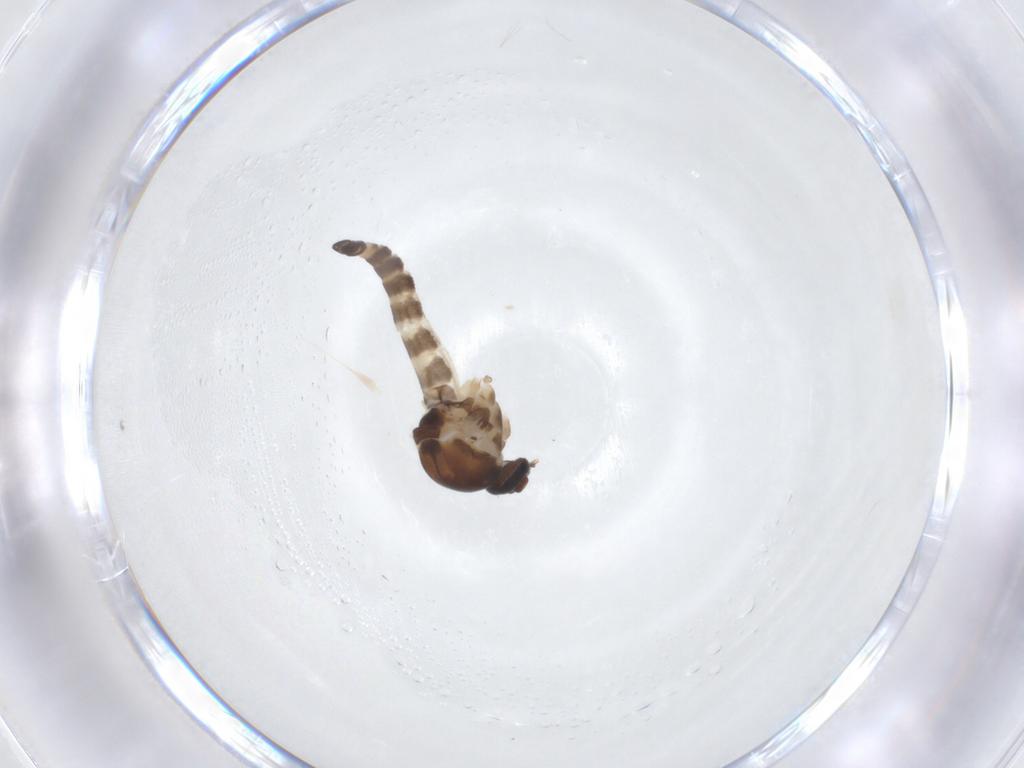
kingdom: Animalia
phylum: Arthropoda
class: Insecta
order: Diptera
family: Ceratopogonidae
